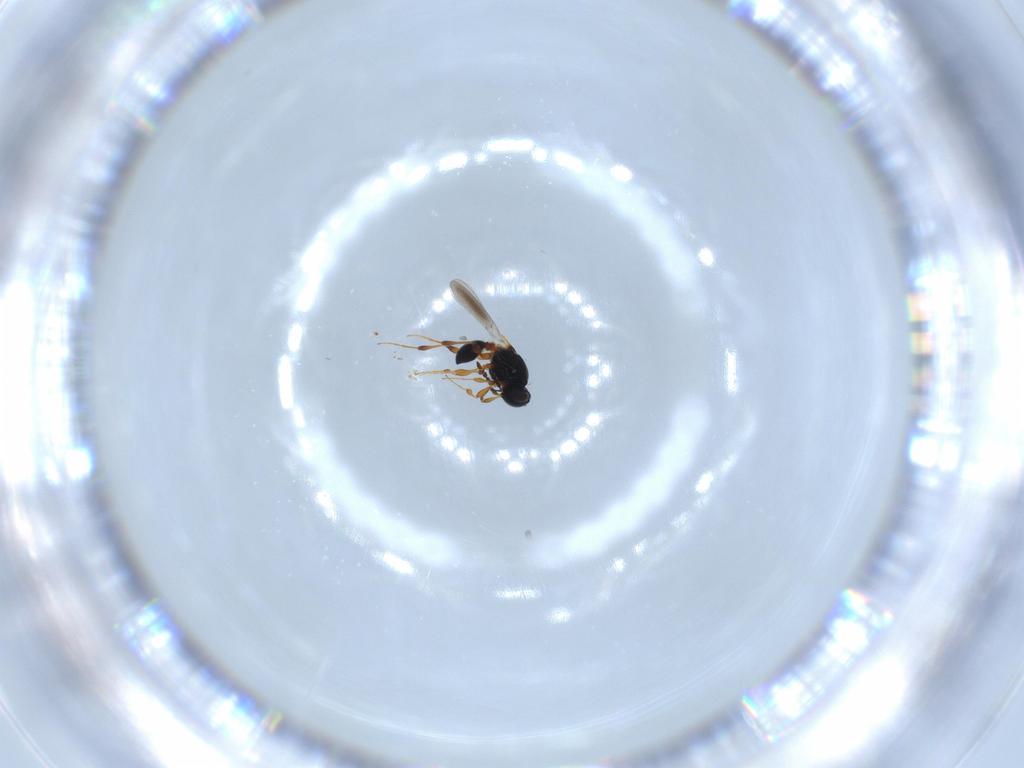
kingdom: Animalia
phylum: Arthropoda
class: Insecta
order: Hymenoptera
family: Platygastridae
